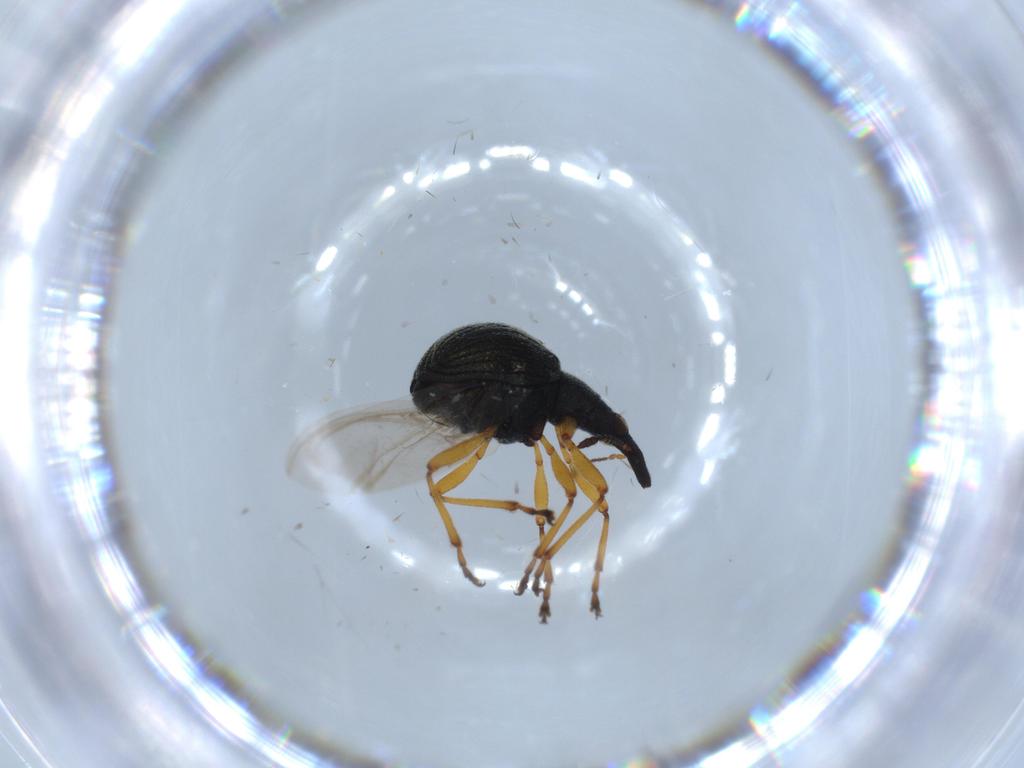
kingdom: Animalia
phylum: Arthropoda
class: Insecta
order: Coleoptera
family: Brentidae
